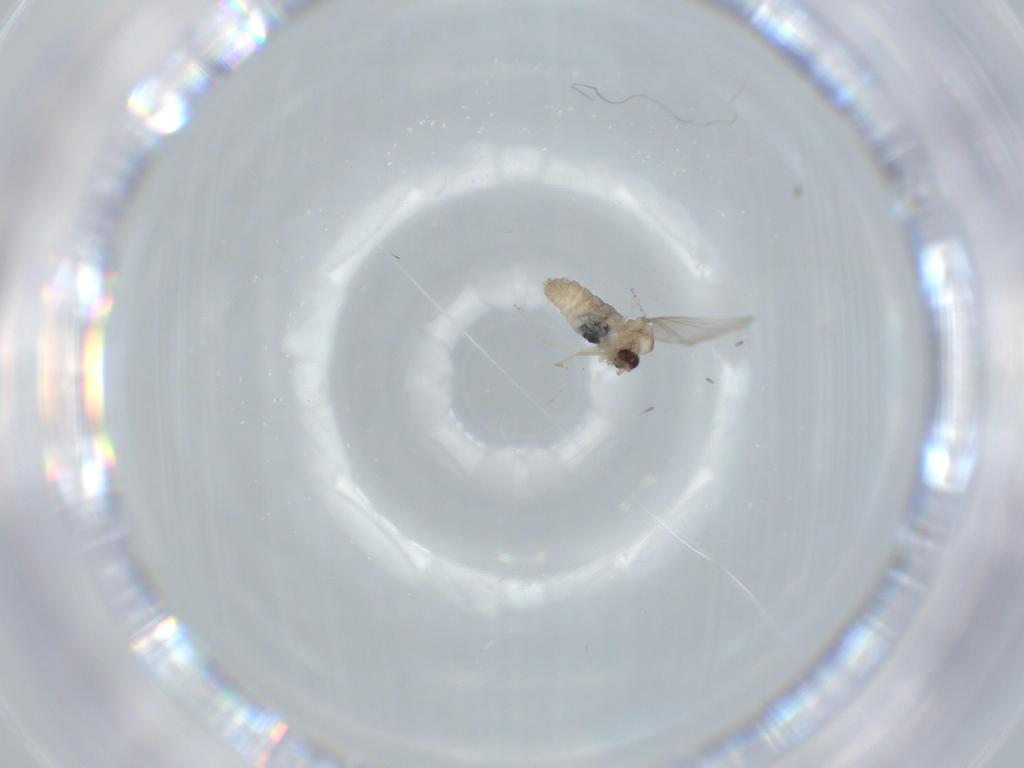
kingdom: Animalia
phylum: Arthropoda
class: Insecta
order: Diptera
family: Cecidomyiidae
